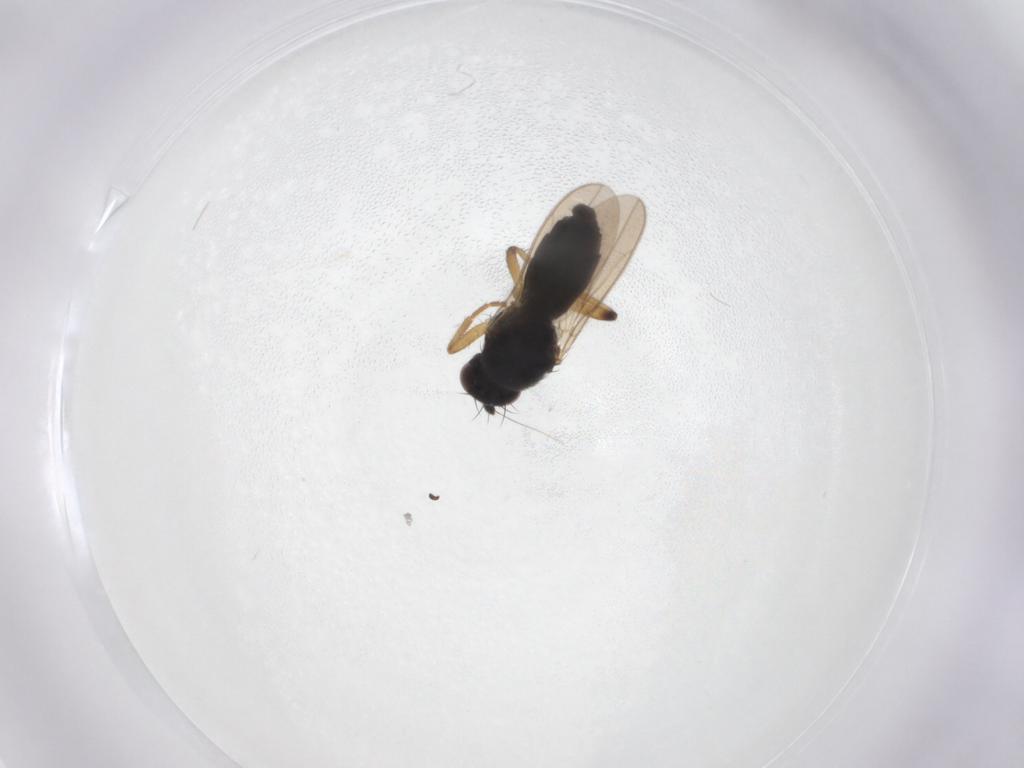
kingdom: Animalia
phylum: Arthropoda
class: Insecta
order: Diptera
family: Sphaeroceridae
